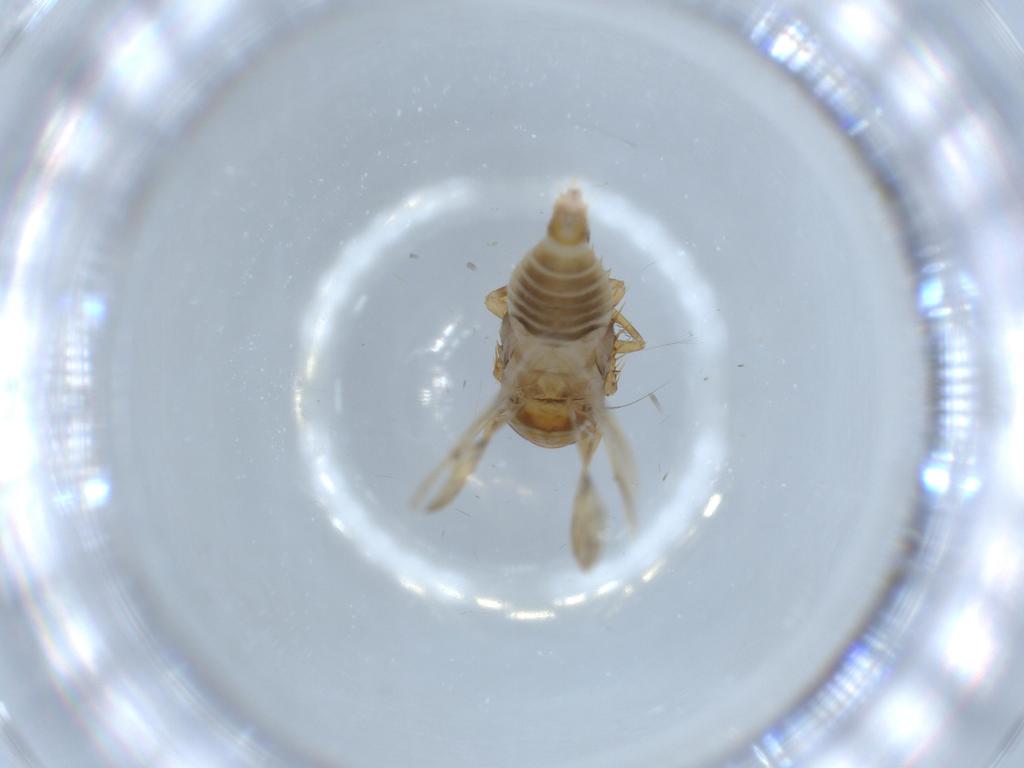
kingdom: Animalia
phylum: Arthropoda
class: Insecta
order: Hemiptera
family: Cicadellidae
